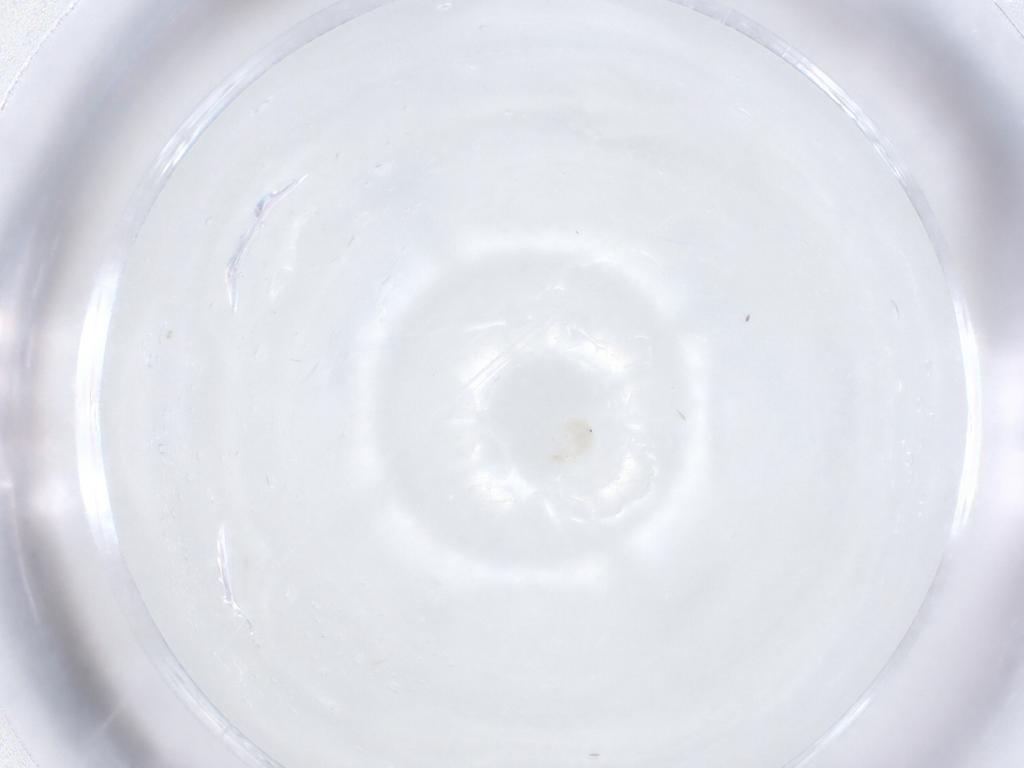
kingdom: Animalia
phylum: Arthropoda
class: Arachnida
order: Trombidiformes
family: Anystidae
